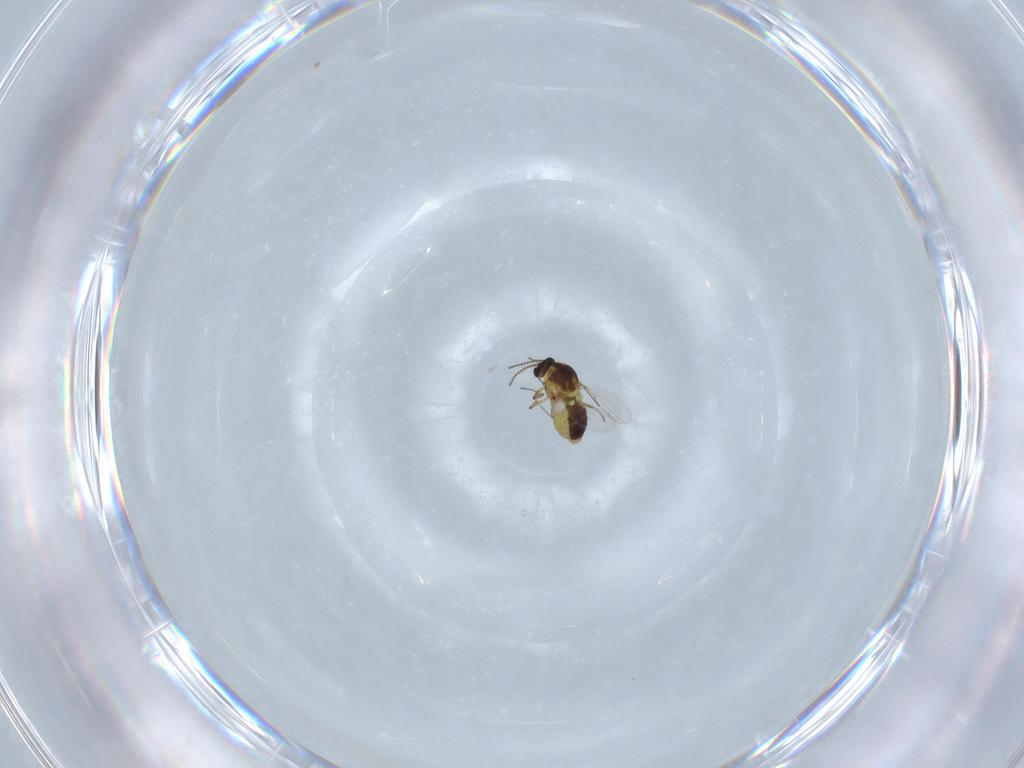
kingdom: Animalia
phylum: Arthropoda
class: Insecta
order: Diptera
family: Ceratopogonidae
